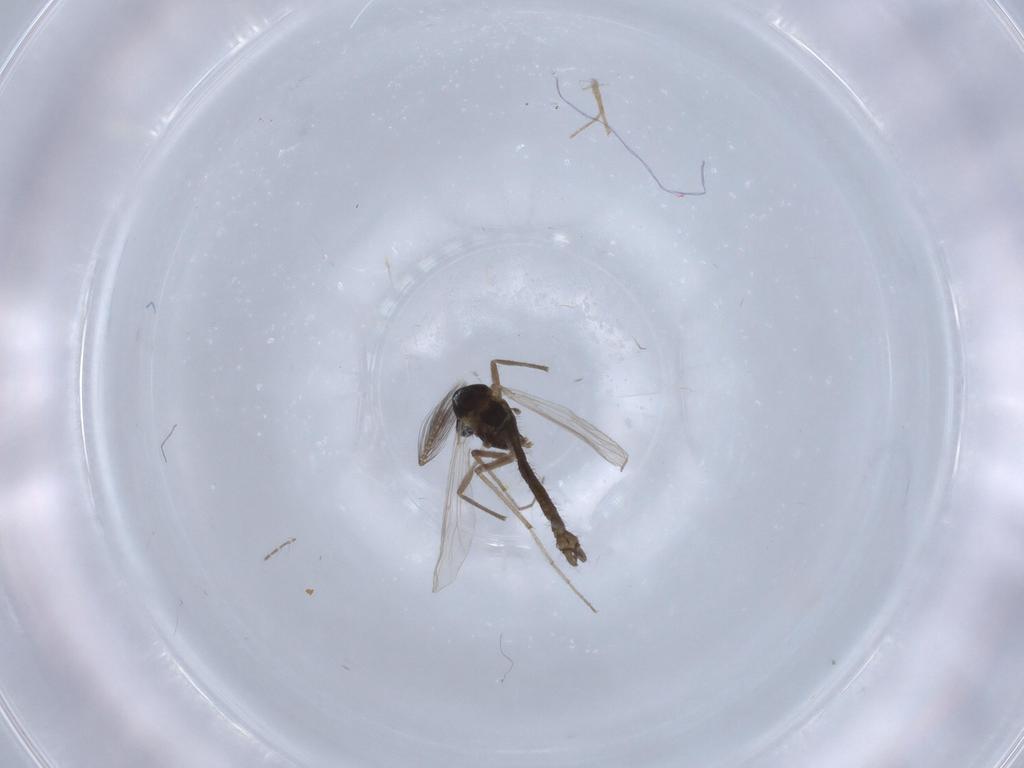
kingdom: Animalia
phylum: Arthropoda
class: Insecta
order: Diptera
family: Chironomidae
